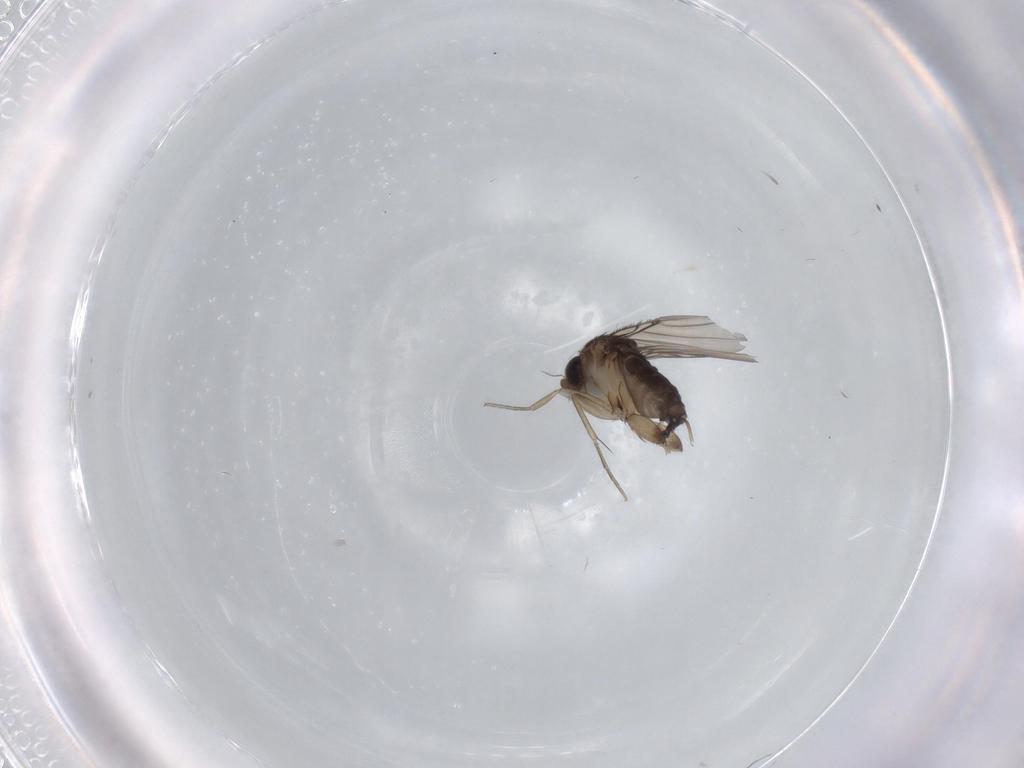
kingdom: Animalia
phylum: Arthropoda
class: Insecta
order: Diptera
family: Phoridae
